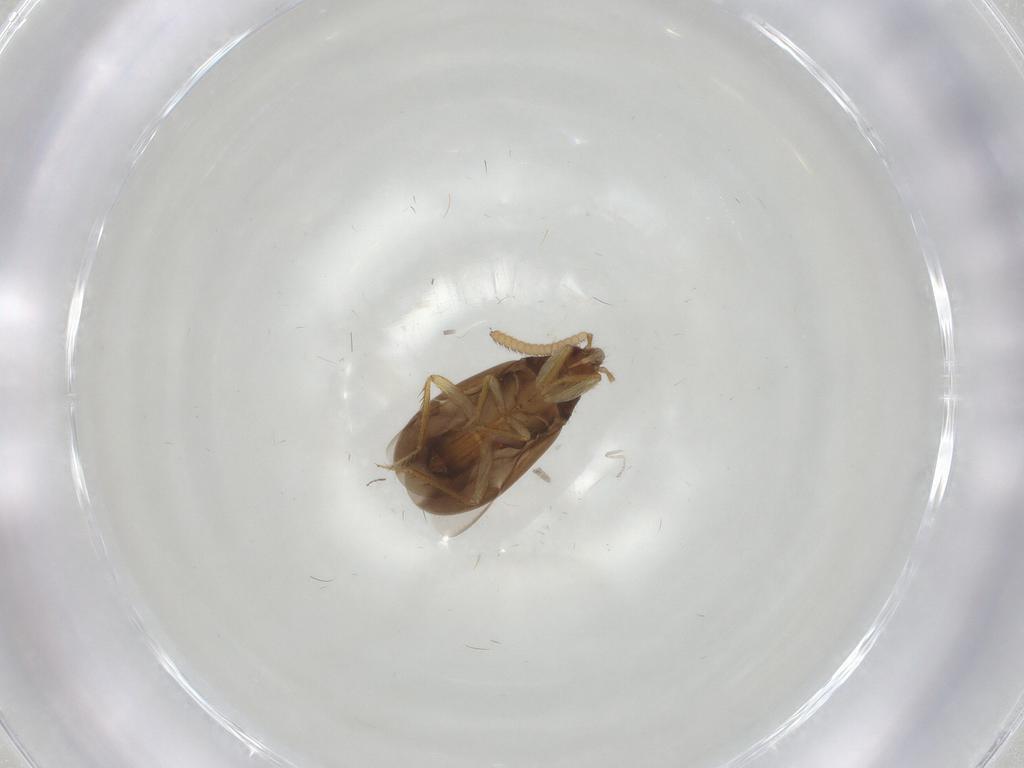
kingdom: Animalia
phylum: Arthropoda
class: Insecta
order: Hemiptera
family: Ceratocombidae
